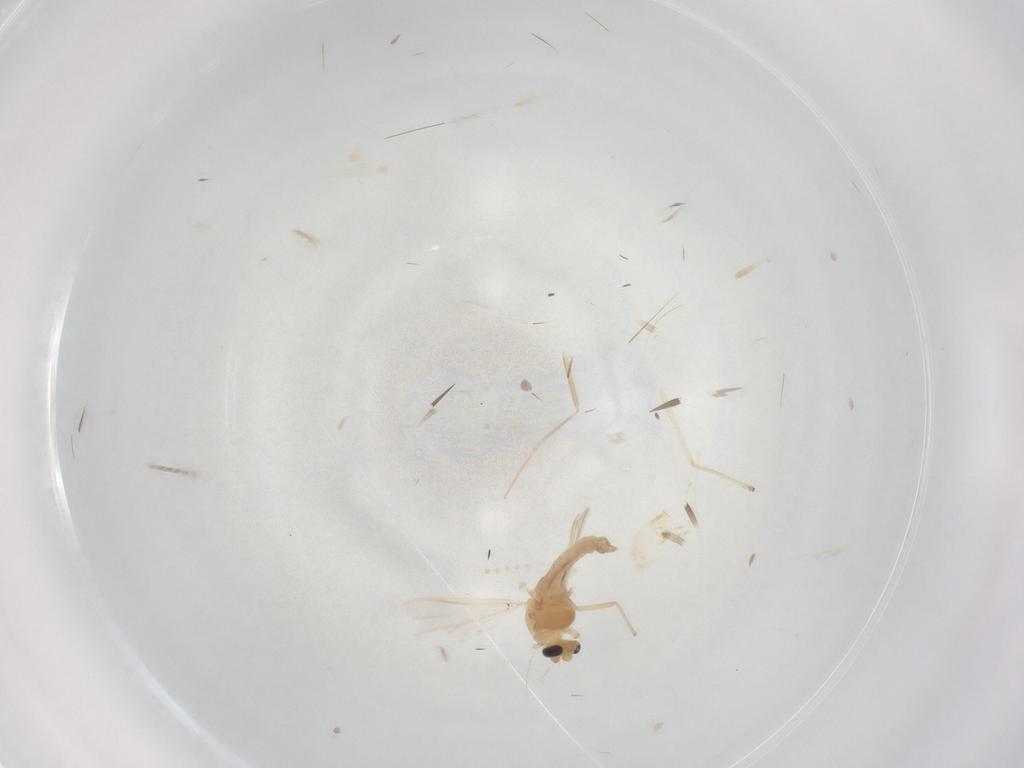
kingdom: Animalia
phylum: Arthropoda
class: Insecta
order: Diptera
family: Chironomidae
